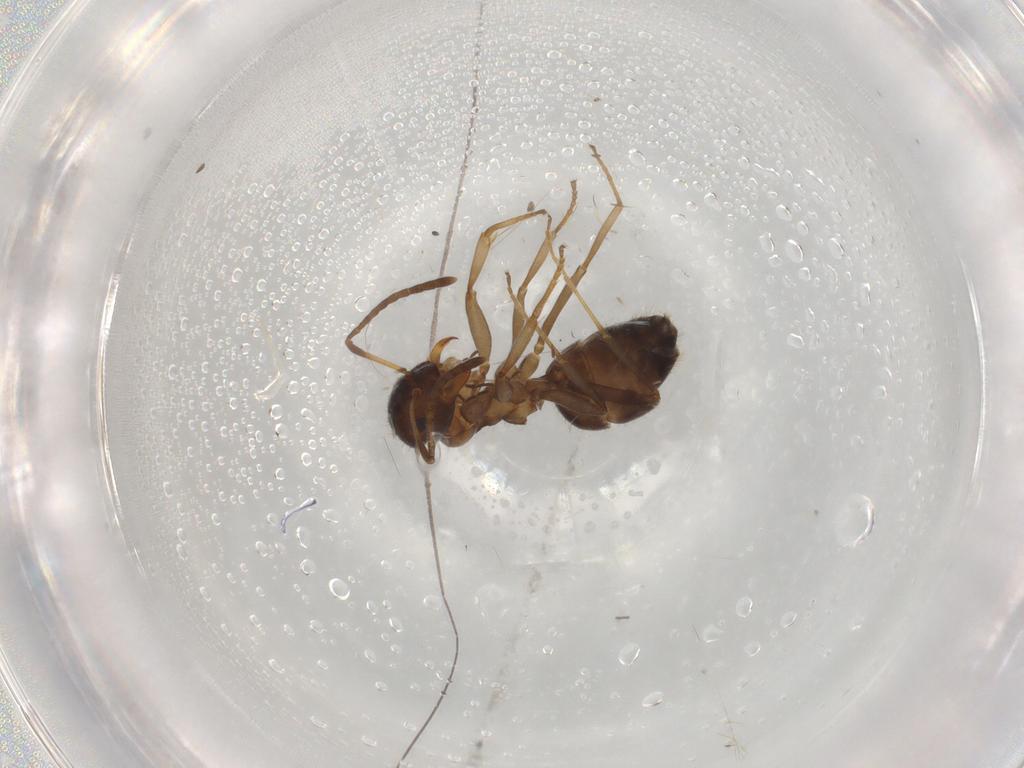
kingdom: Animalia
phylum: Arthropoda
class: Insecta
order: Hymenoptera
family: Formicidae
